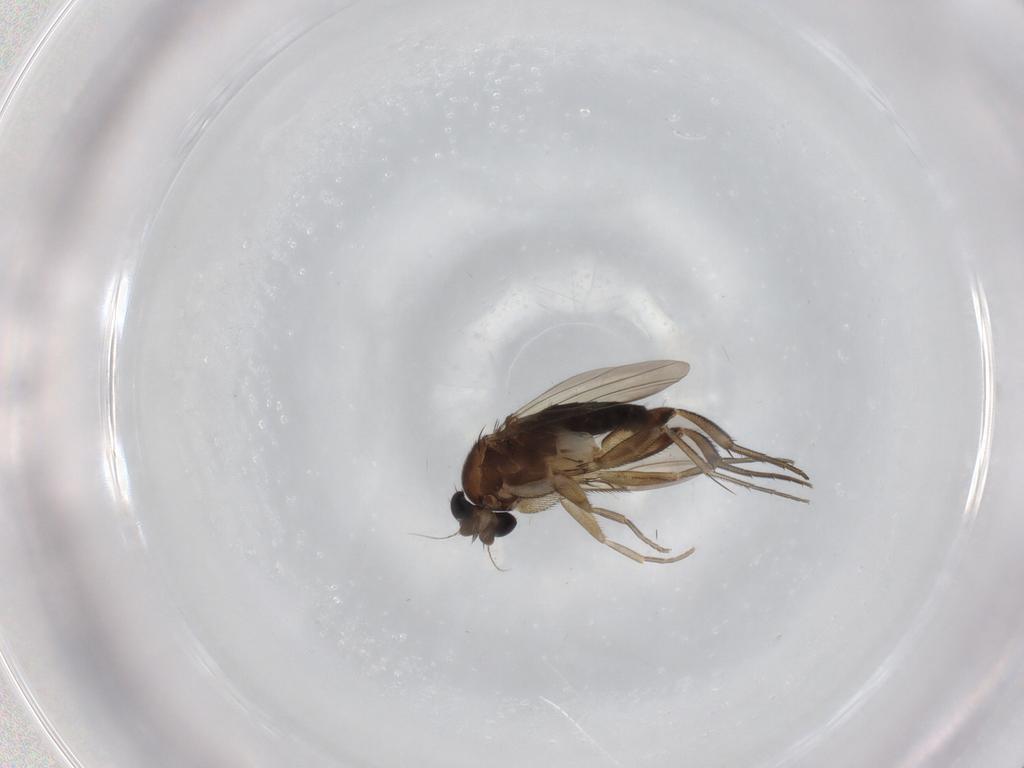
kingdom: Animalia
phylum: Arthropoda
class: Insecta
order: Diptera
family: Phoridae
